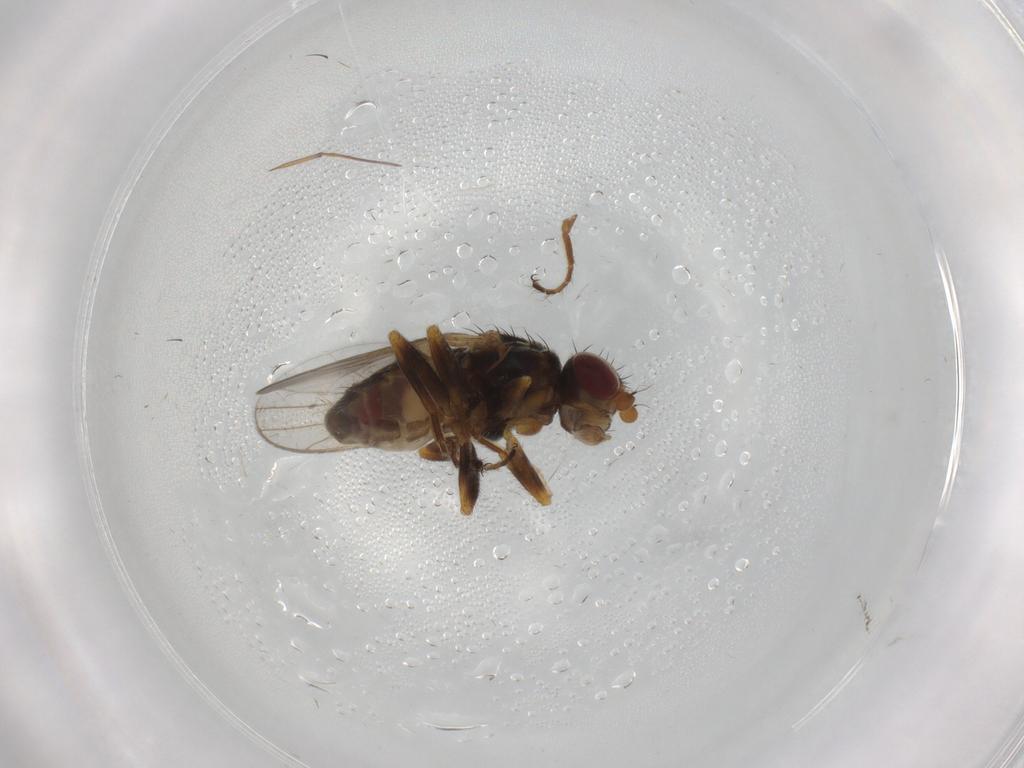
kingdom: Animalia
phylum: Arthropoda
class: Insecta
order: Diptera
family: Chloropidae
